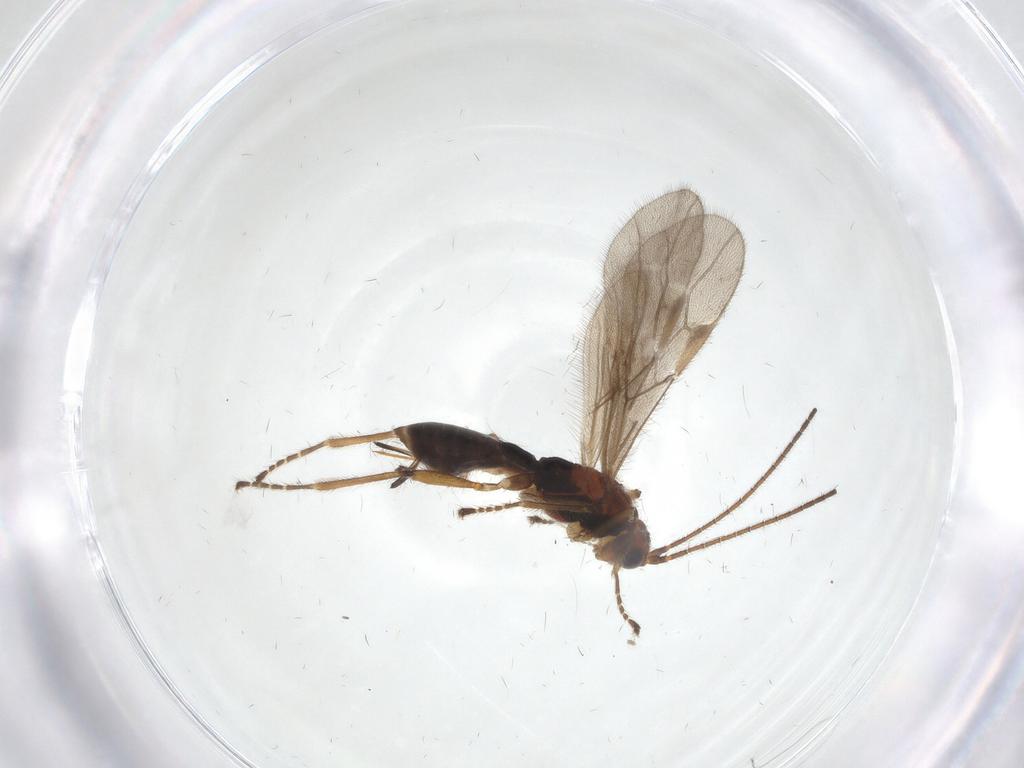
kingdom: Animalia
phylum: Arthropoda
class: Insecta
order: Hymenoptera
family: Braconidae
